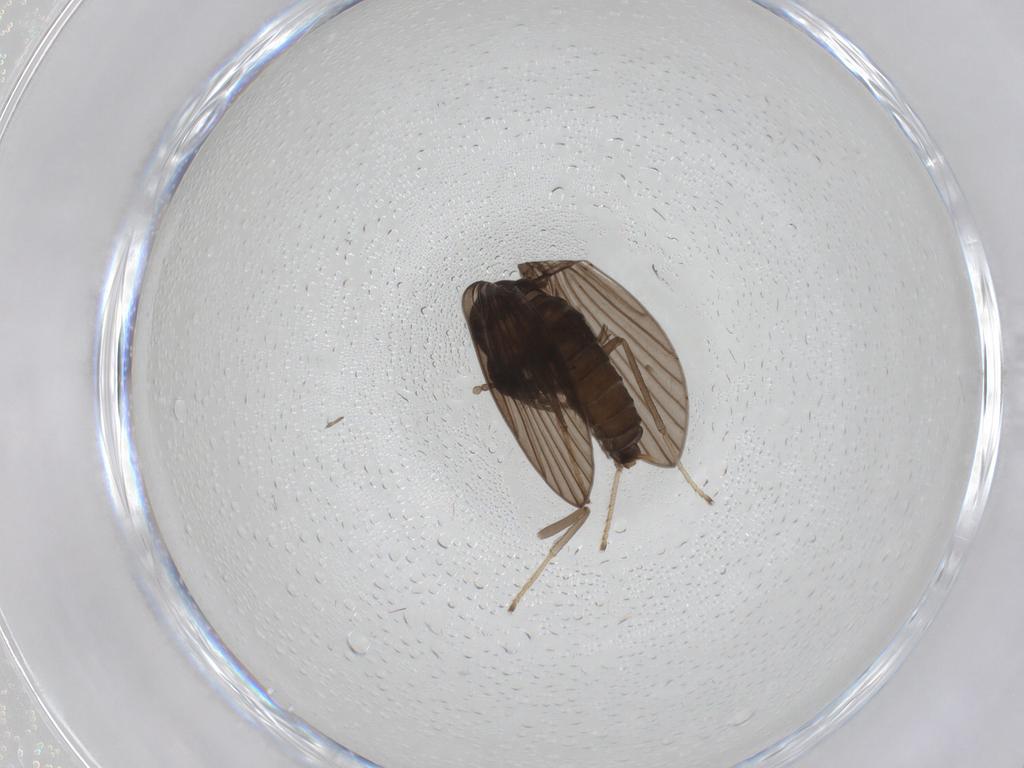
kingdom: Animalia
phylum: Arthropoda
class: Insecta
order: Diptera
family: Psychodidae
